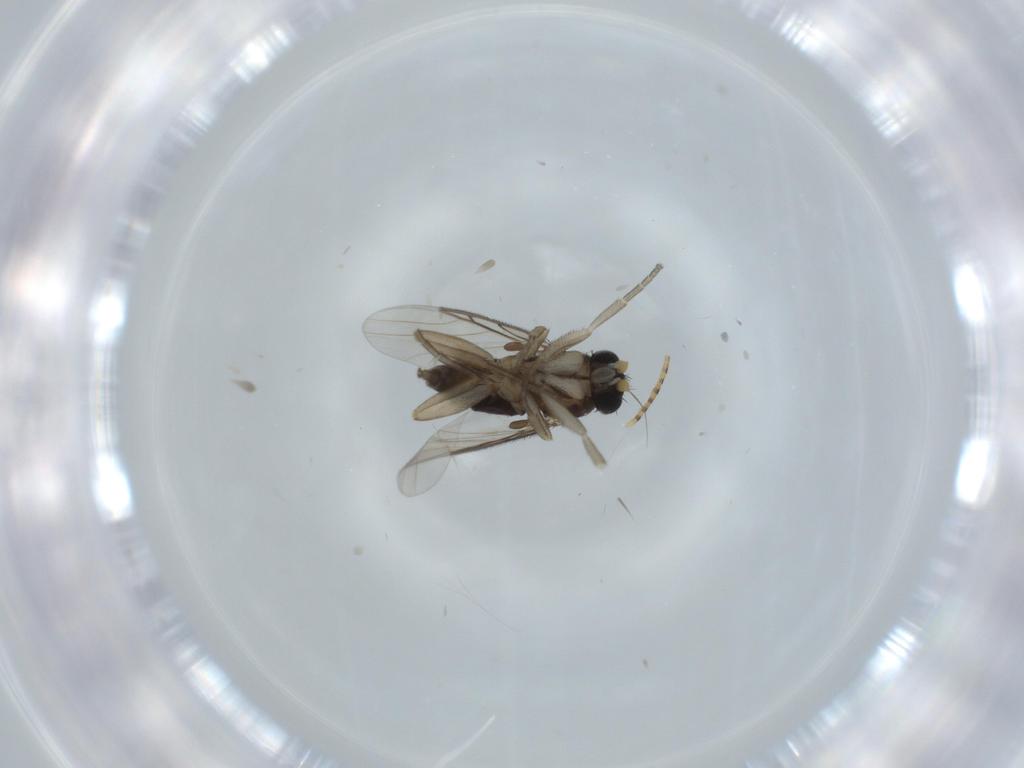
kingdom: Animalia
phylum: Arthropoda
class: Insecta
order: Diptera
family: Phoridae
